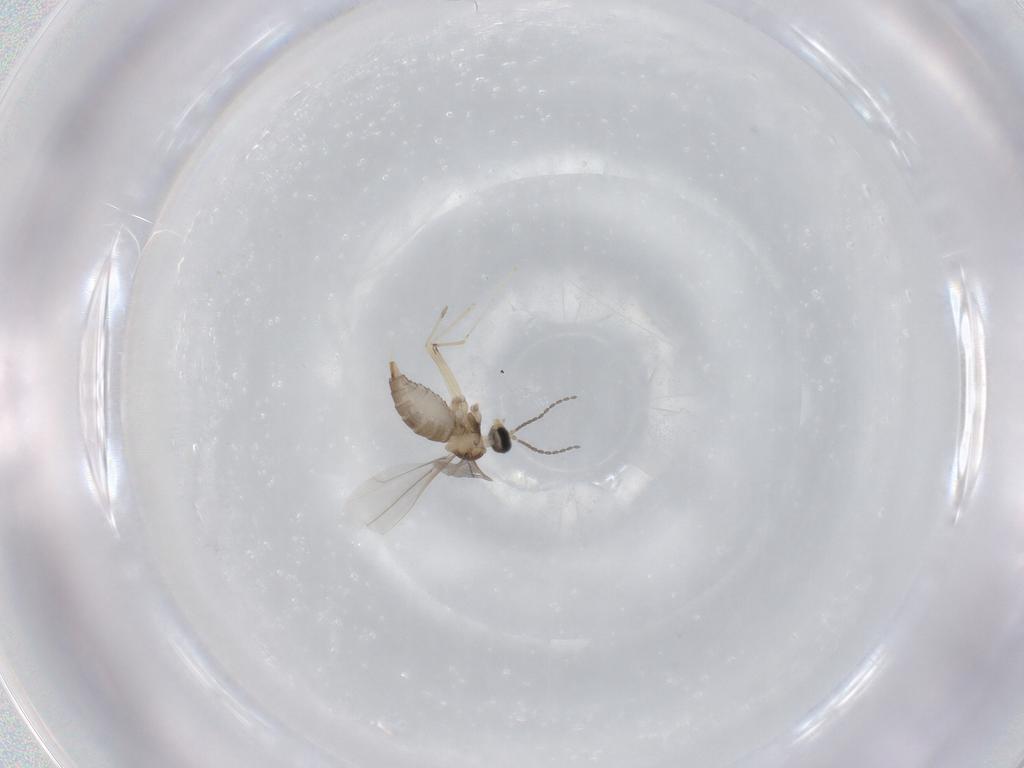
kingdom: Animalia
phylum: Arthropoda
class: Insecta
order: Diptera
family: Cecidomyiidae
